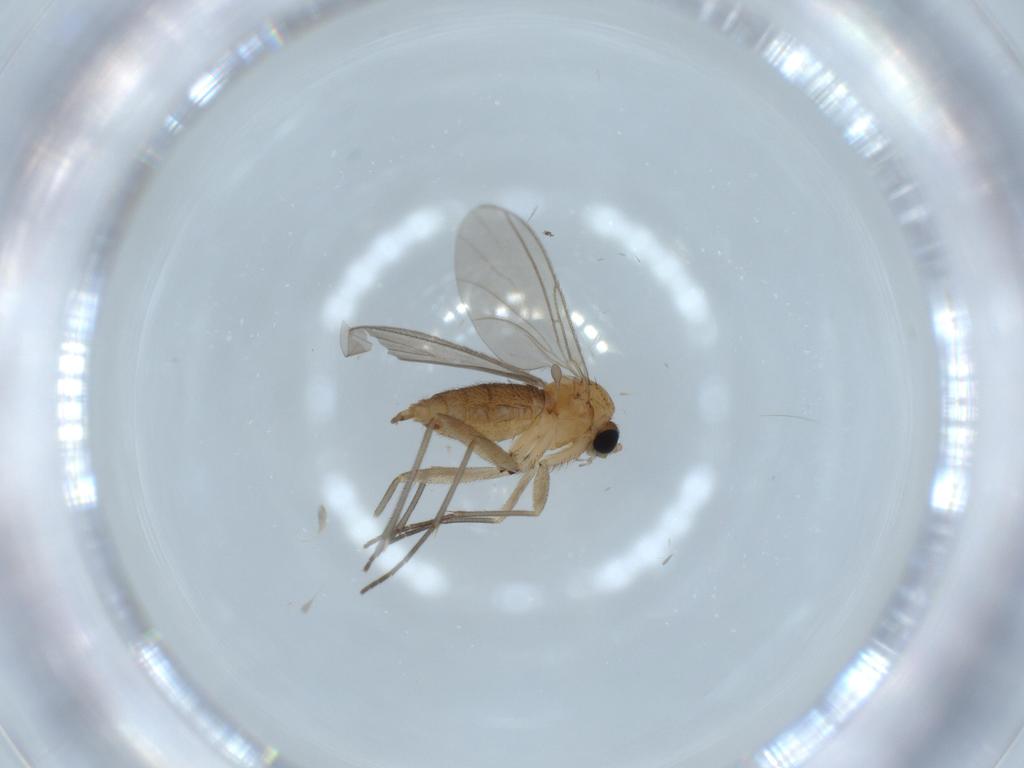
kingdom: Animalia
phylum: Arthropoda
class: Insecta
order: Diptera
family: Sciaridae
